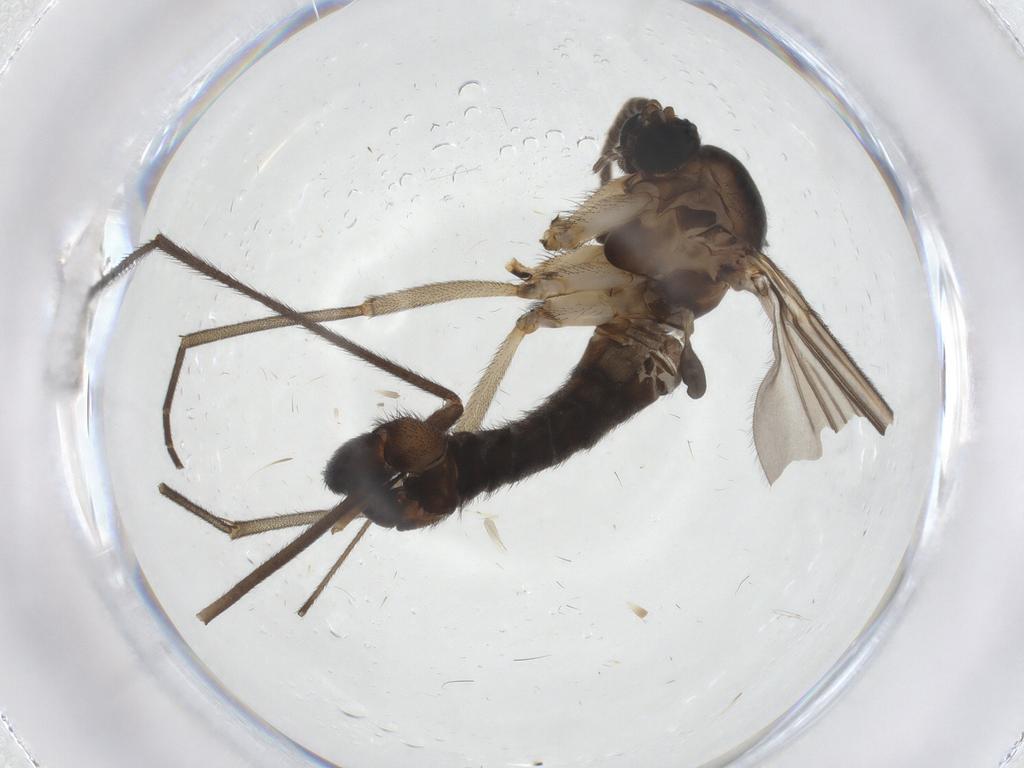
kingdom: Animalia
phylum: Arthropoda
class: Insecta
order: Diptera
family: Sciaridae
